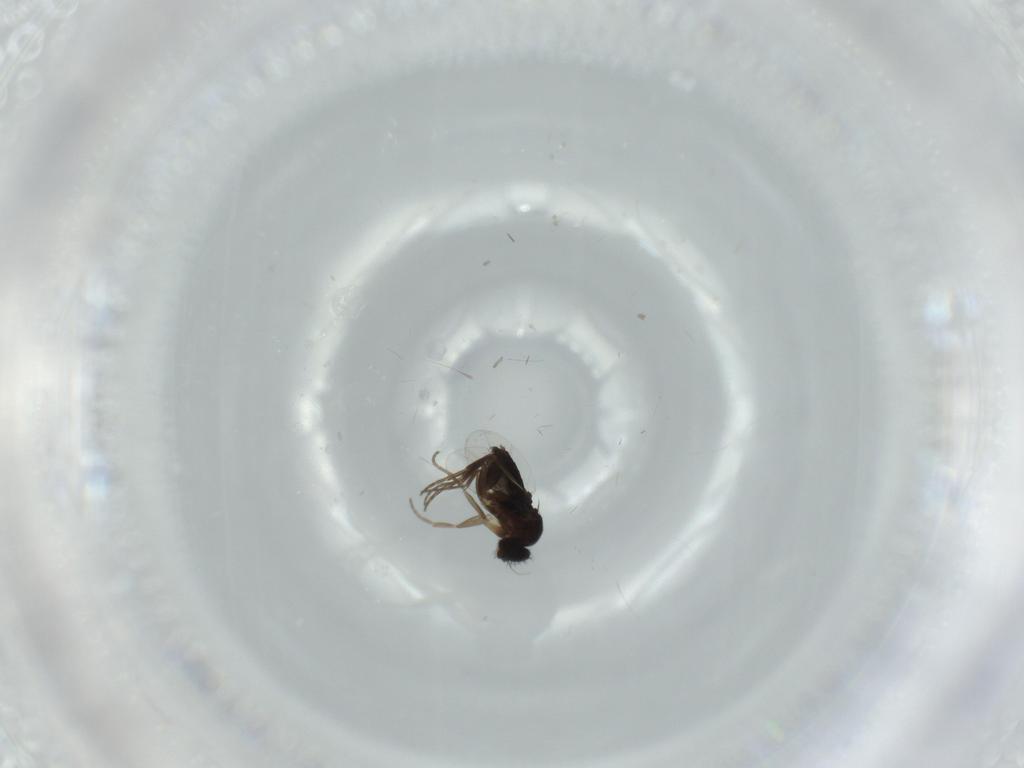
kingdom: Animalia
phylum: Arthropoda
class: Insecta
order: Diptera
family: Phoridae
